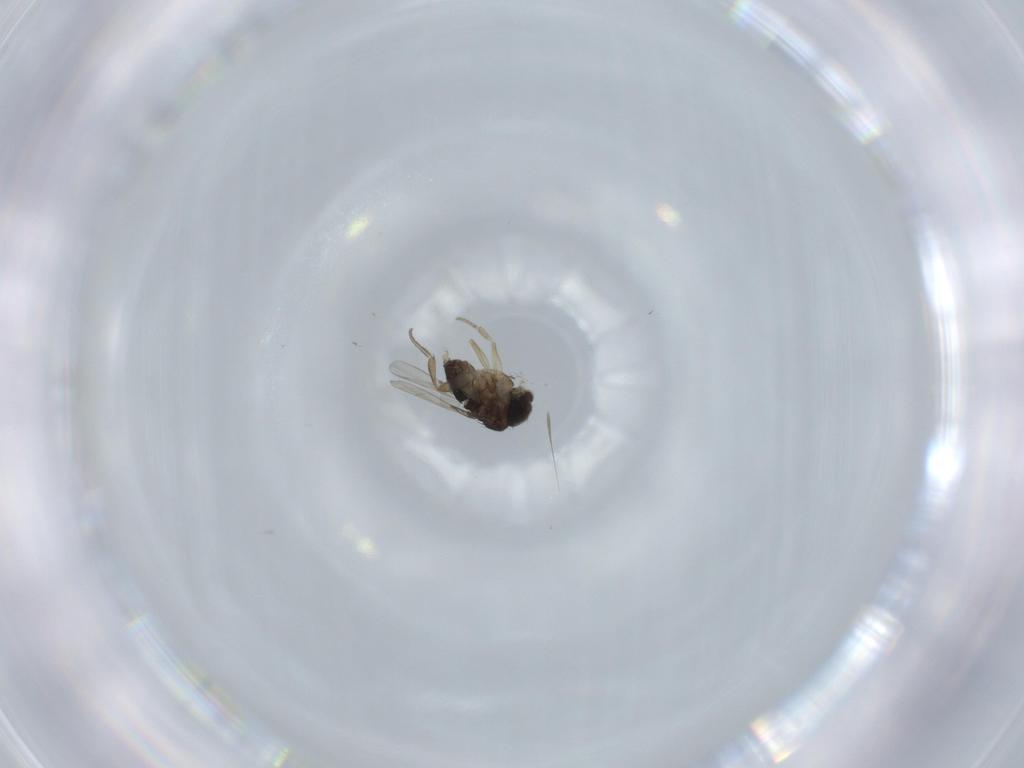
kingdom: Animalia
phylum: Arthropoda
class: Insecta
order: Diptera
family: Phoridae
